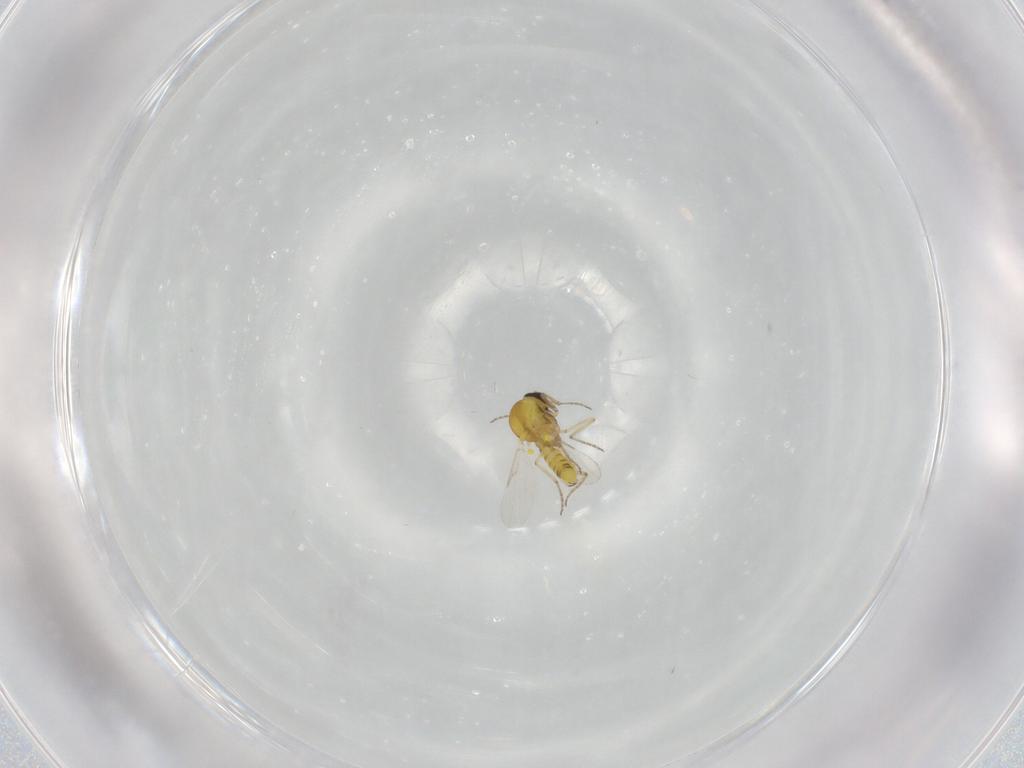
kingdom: Animalia
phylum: Arthropoda
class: Insecta
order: Diptera
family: Ceratopogonidae
